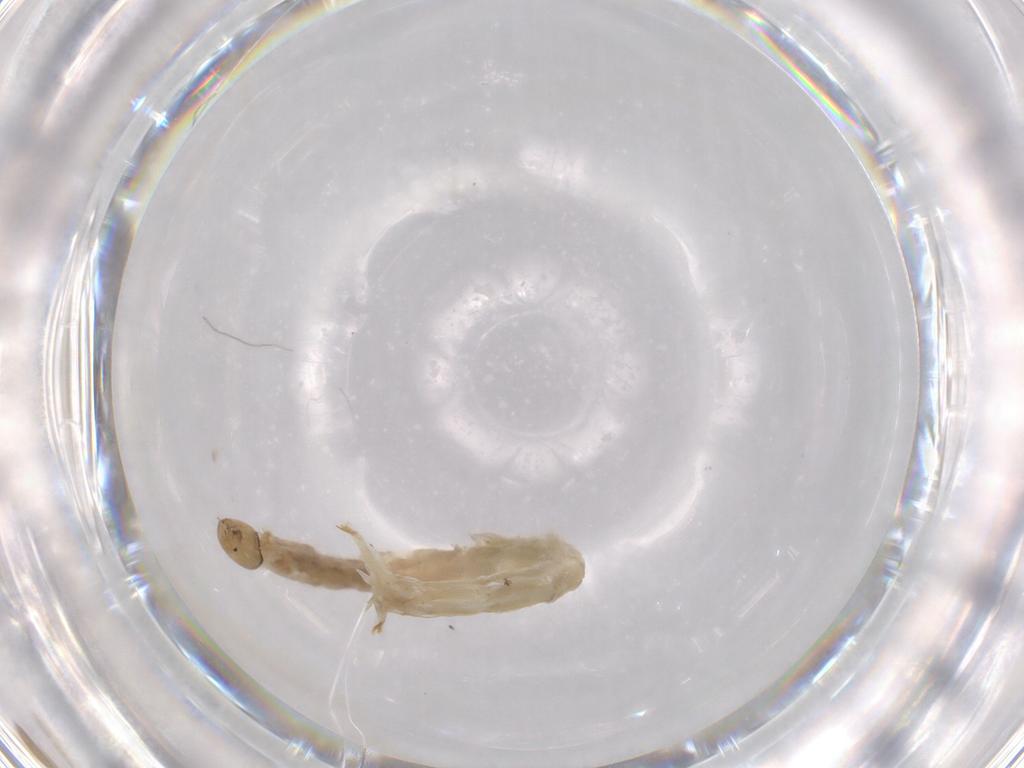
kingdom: Animalia
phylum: Arthropoda
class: Insecta
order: Diptera
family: Chironomidae
